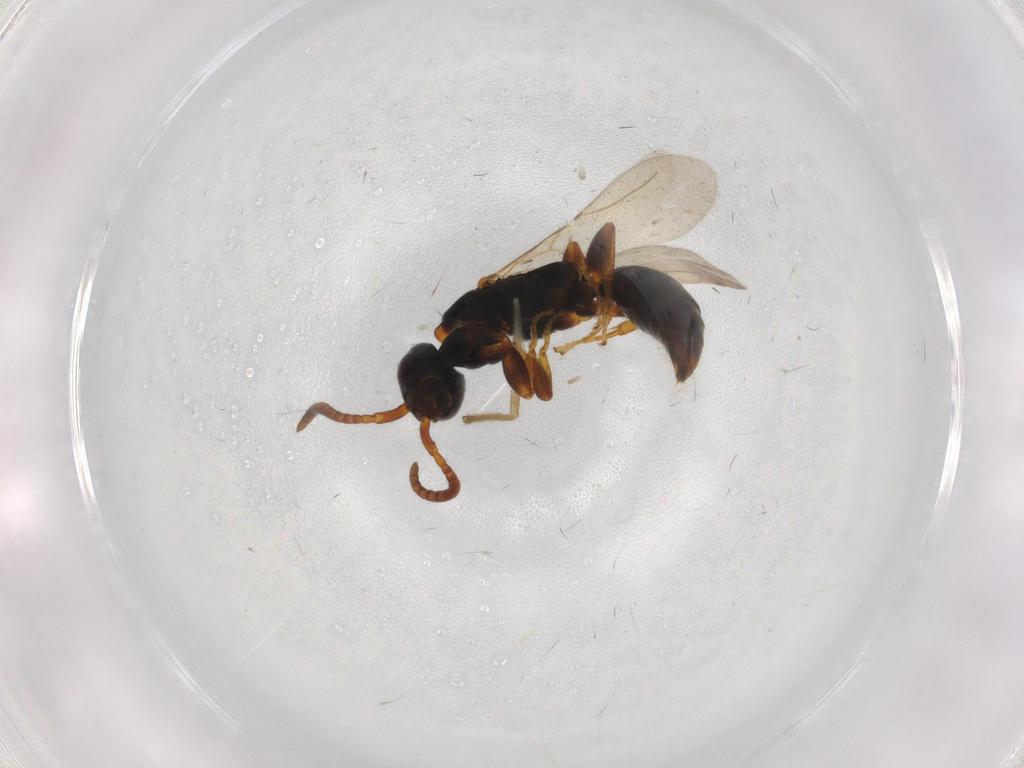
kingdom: Animalia
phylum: Arthropoda
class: Insecta
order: Hymenoptera
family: Bethylidae
